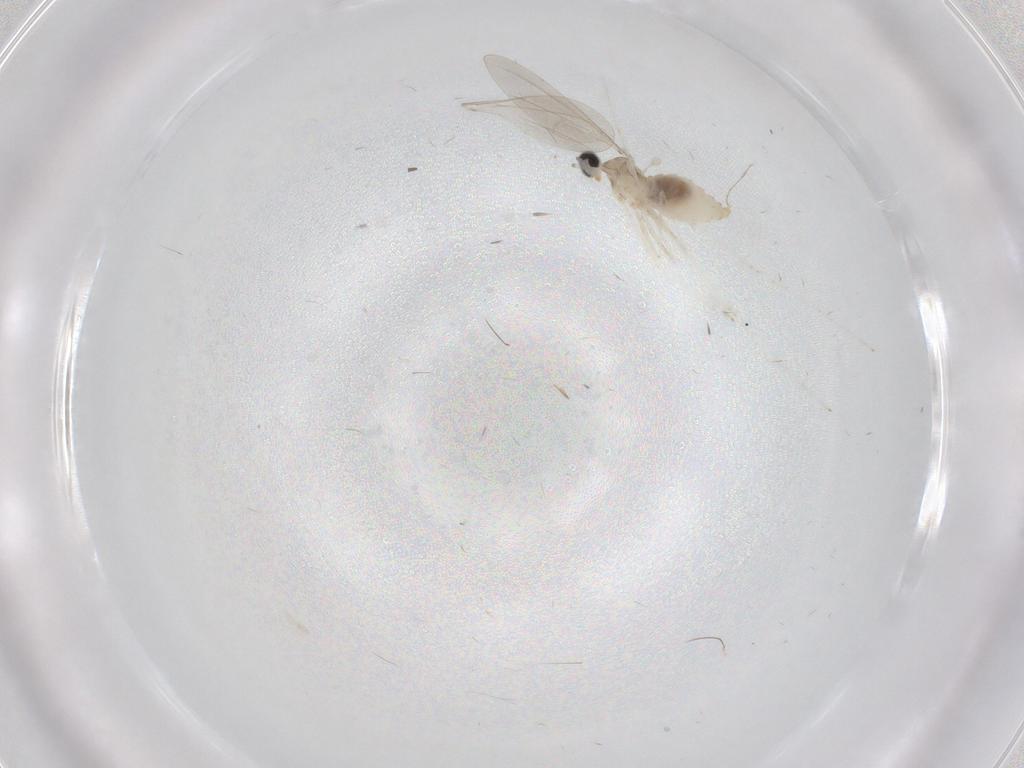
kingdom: Animalia
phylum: Arthropoda
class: Insecta
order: Diptera
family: Cecidomyiidae
